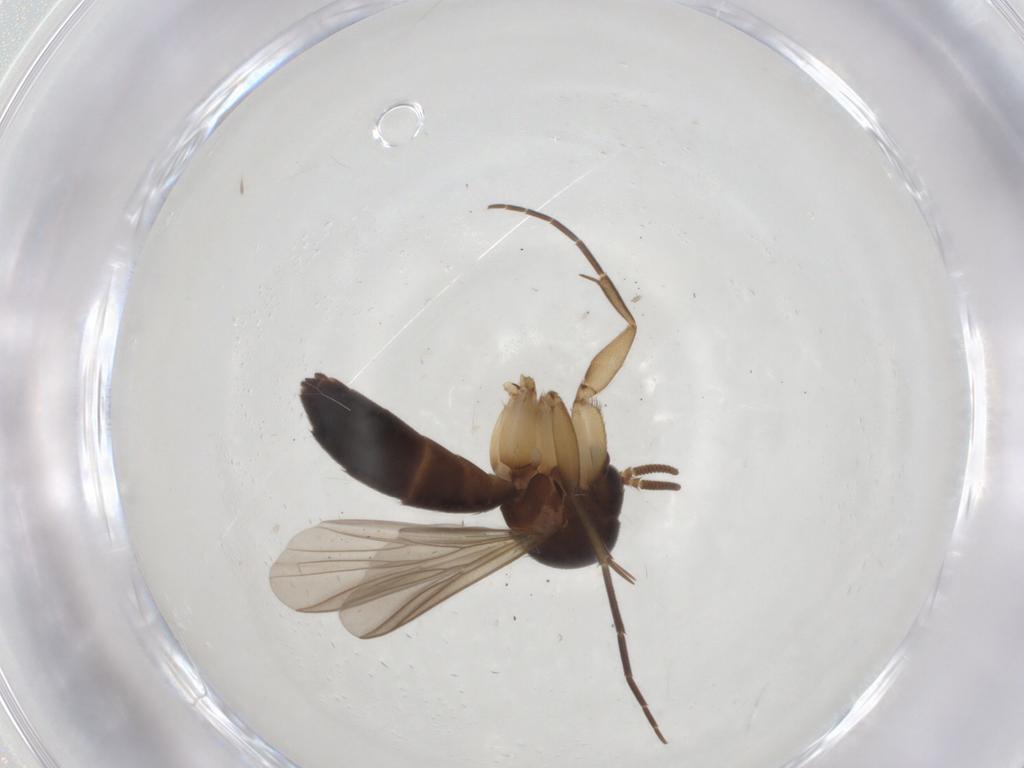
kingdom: Animalia
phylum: Arthropoda
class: Insecta
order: Diptera
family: Mycetophilidae
